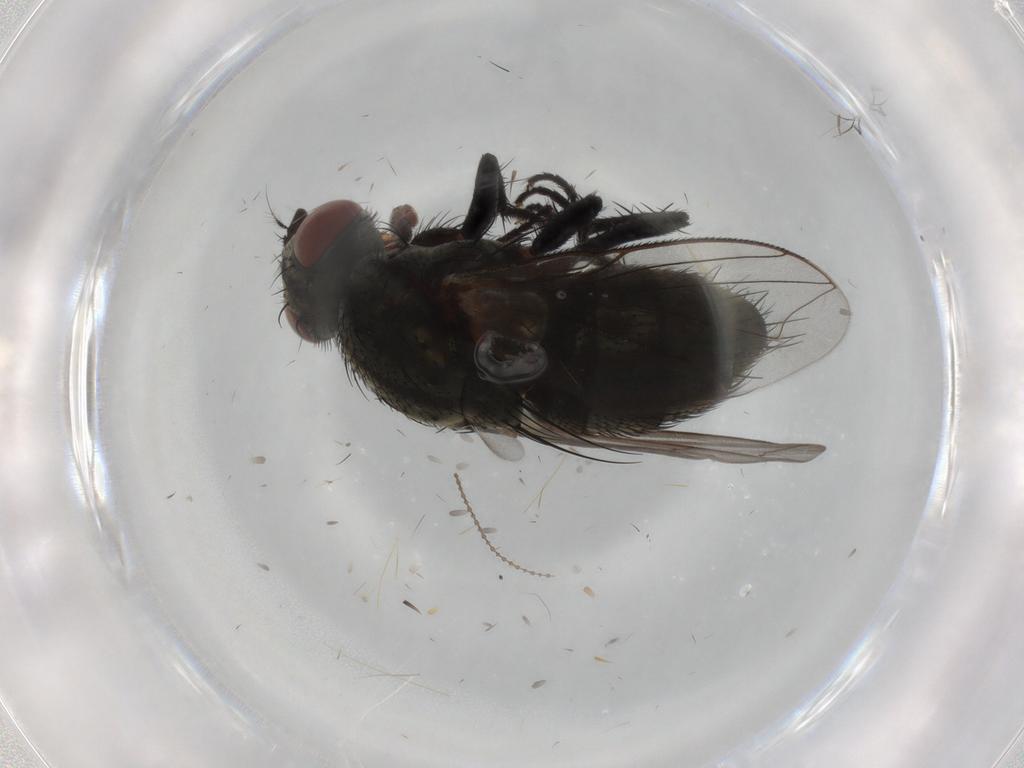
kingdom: Animalia
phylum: Arthropoda
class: Insecta
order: Diptera
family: Sarcophagidae
